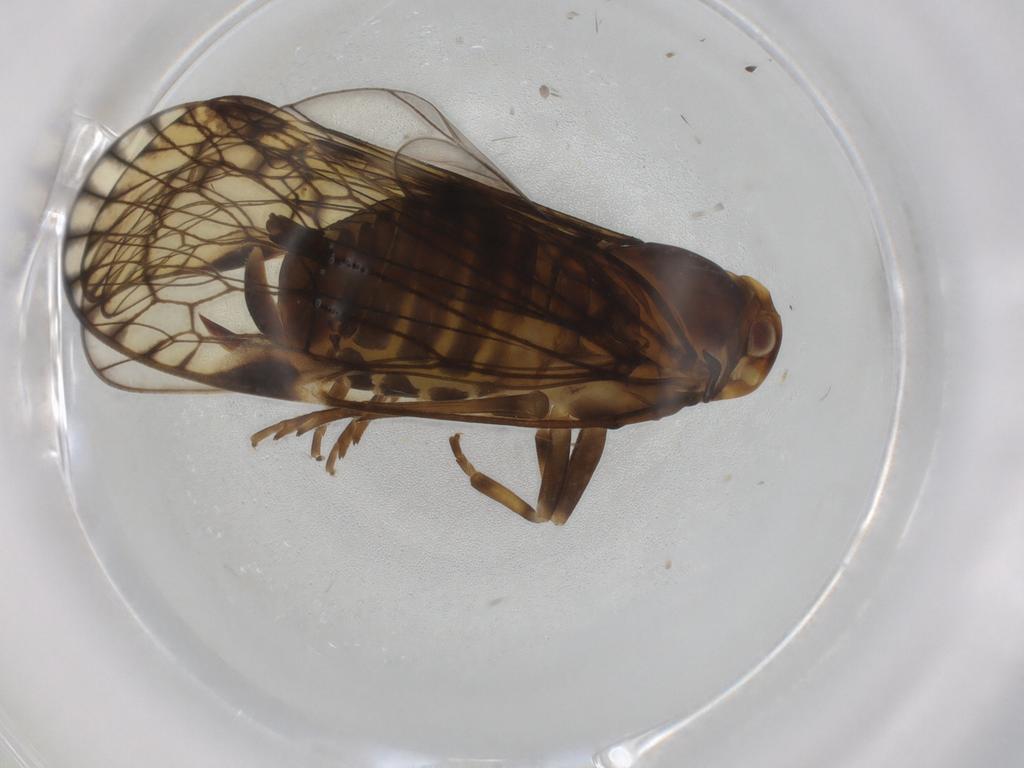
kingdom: Animalia
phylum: Arthropoda
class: Insecta
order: Hemiptera
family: Cixiidae
